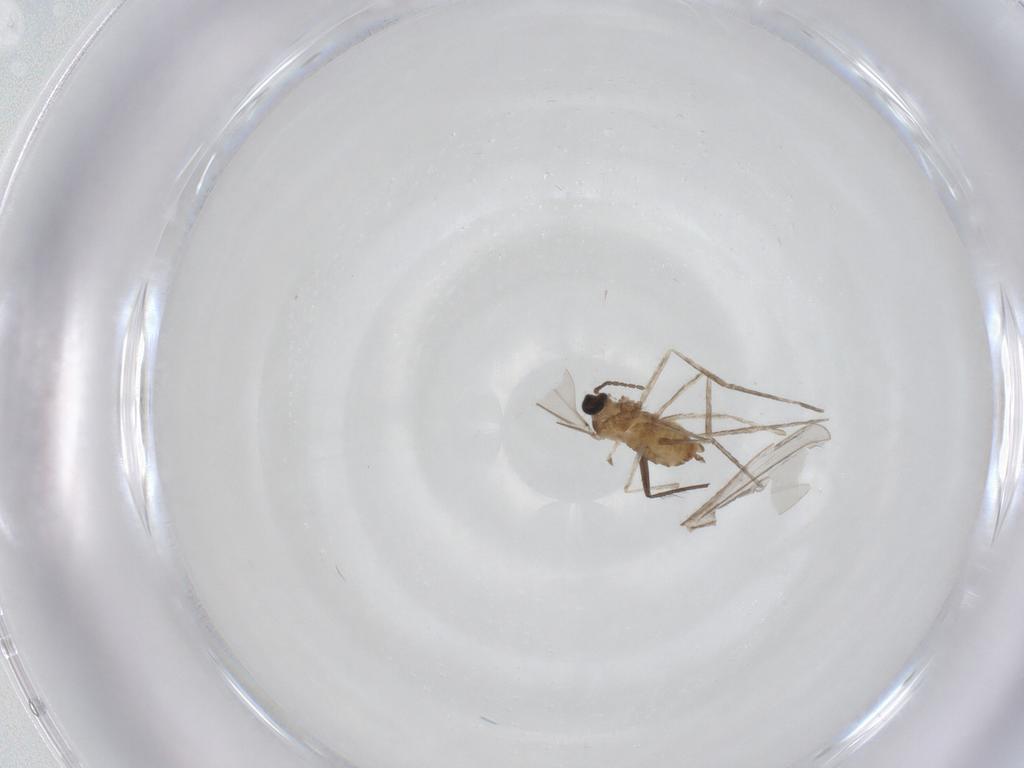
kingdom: Animalia
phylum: Arthropoda
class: Insecta
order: Diptera
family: Cecidomyiidae
